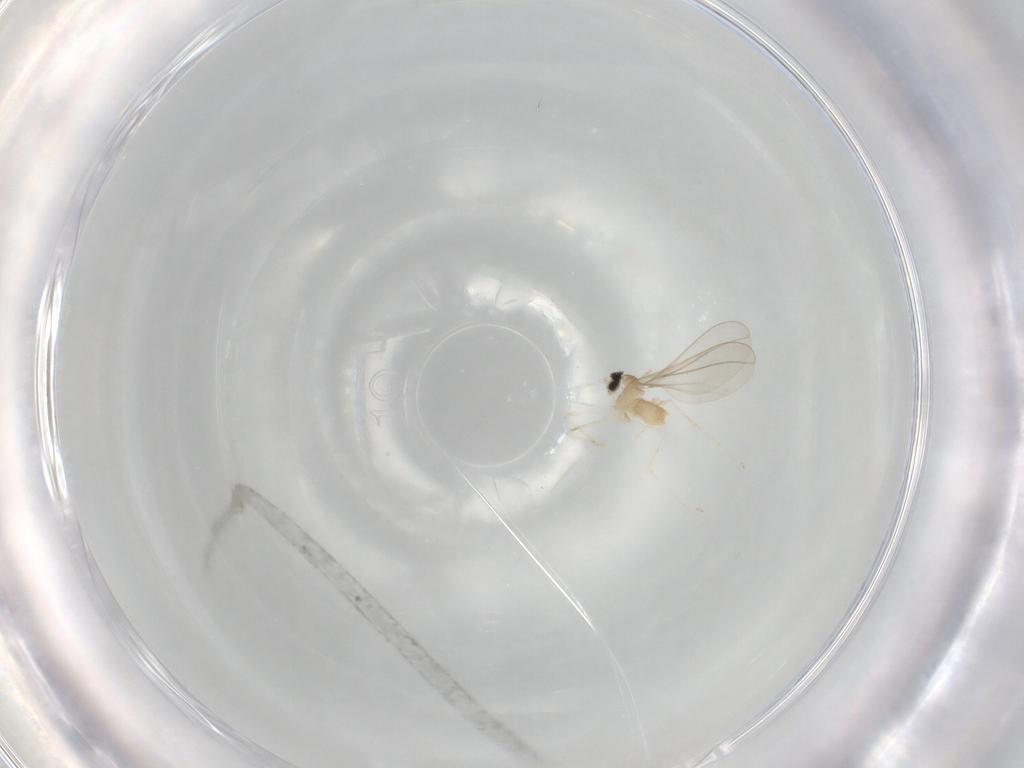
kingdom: Animalia
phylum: Arthropoda
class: Insecta
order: Diptera
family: Cecidomyiidae
